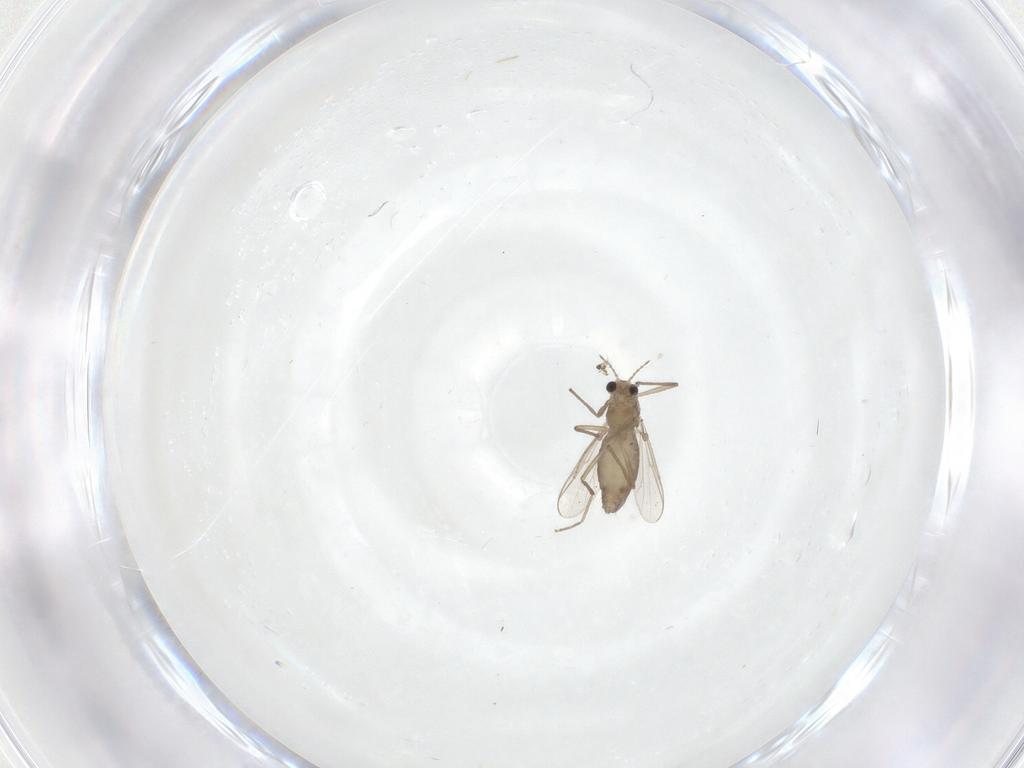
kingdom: Animalia
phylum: Arthropoda
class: Insecta
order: Diptera
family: Chironomidae
